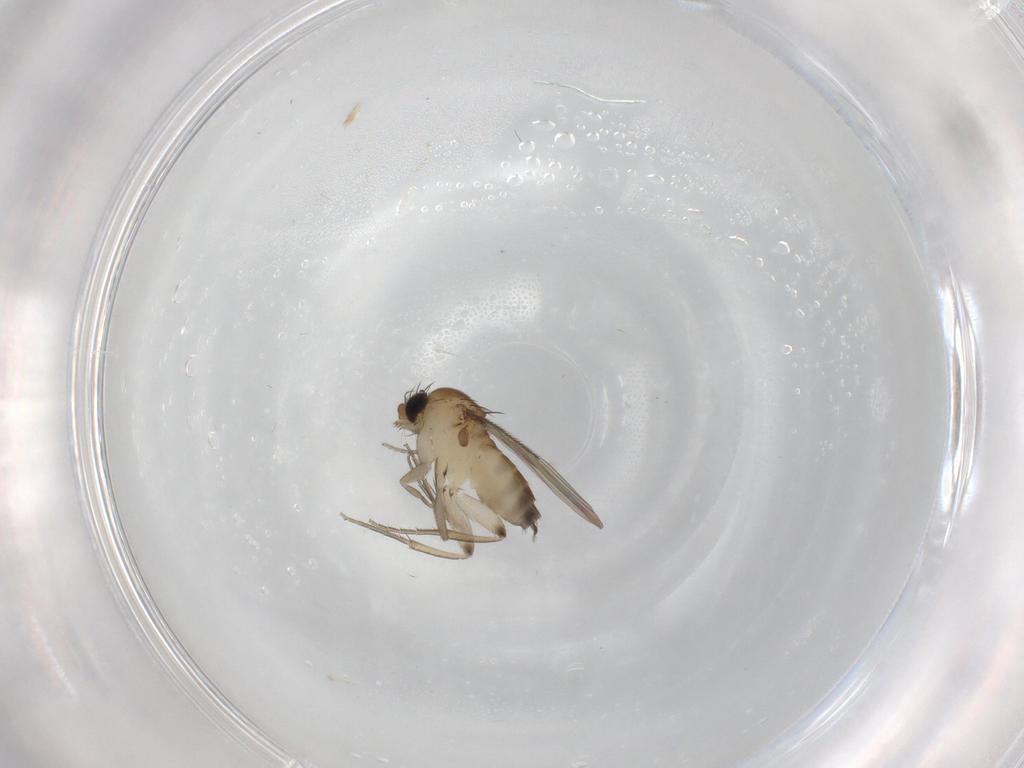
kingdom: Animalia
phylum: Arthropoda
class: Insecta
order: Diptera
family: Phoridae
